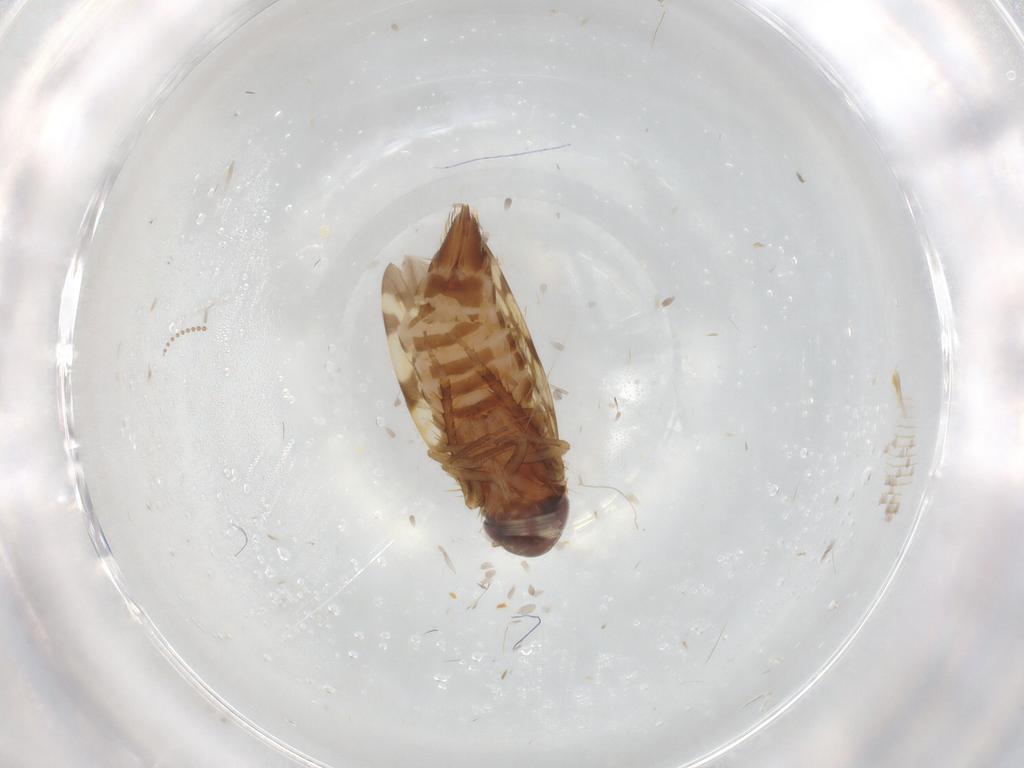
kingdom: Animalia
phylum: Arthropoda
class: Insecta
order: Hemiptera
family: Cicadellidae
